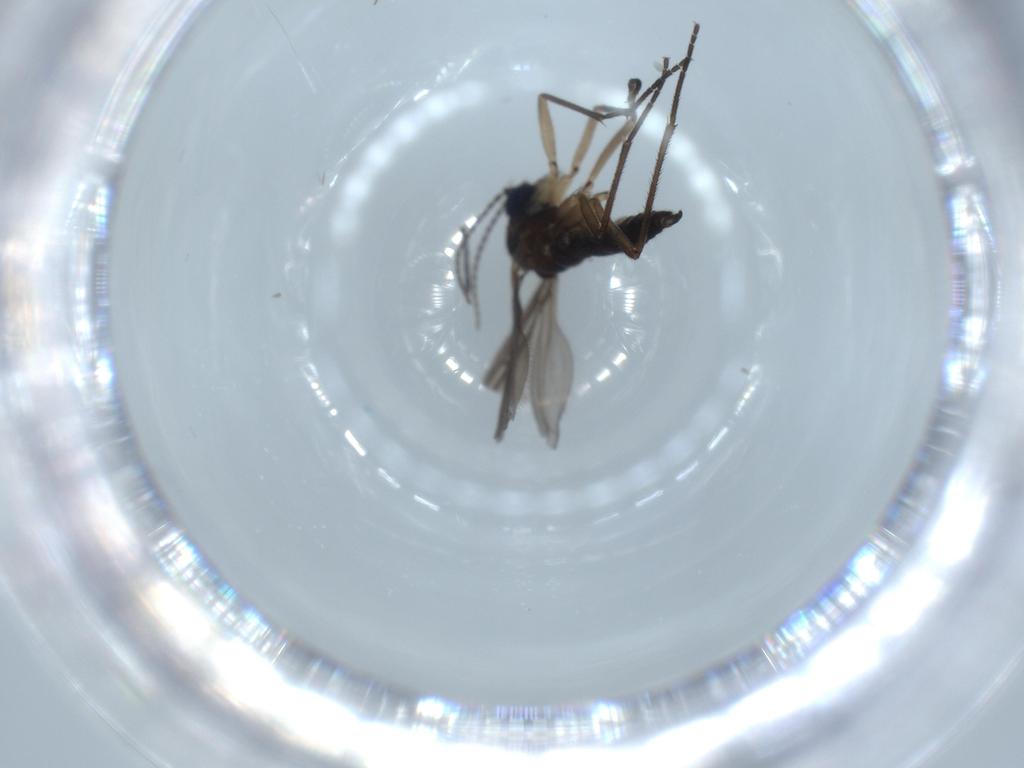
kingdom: Animalia
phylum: Arthropoda
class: Insecta
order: Diptera
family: Sciaridae
